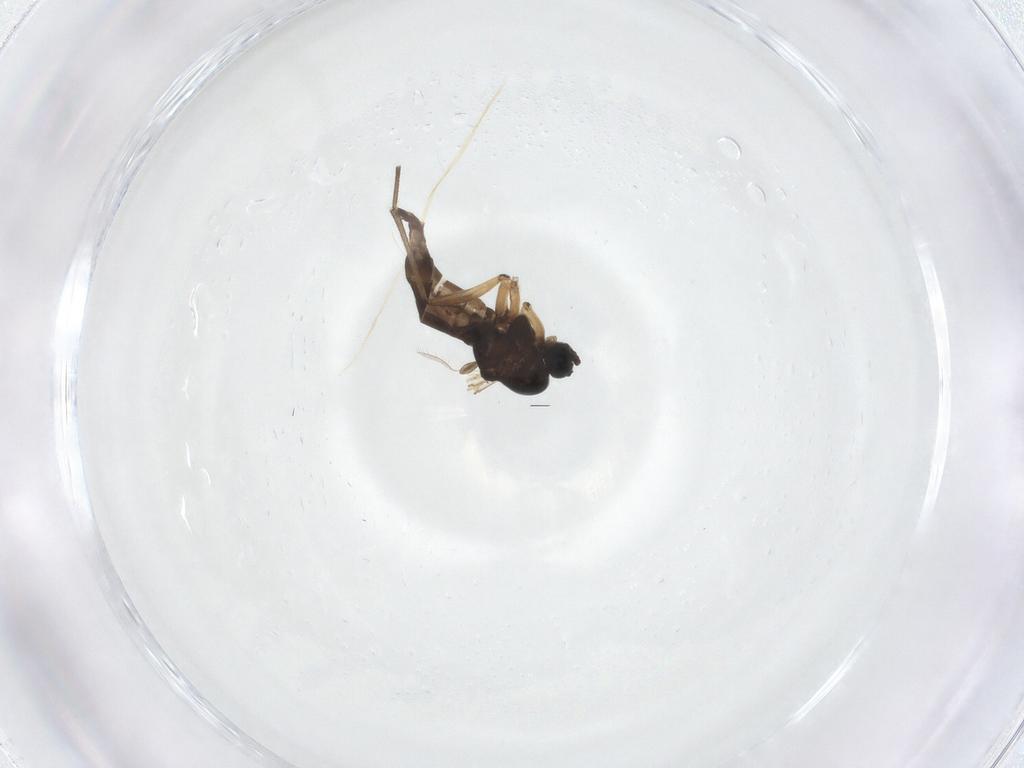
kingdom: Animalia
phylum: Arthropoda
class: Insecta
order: Diptera
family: Sciaridae
